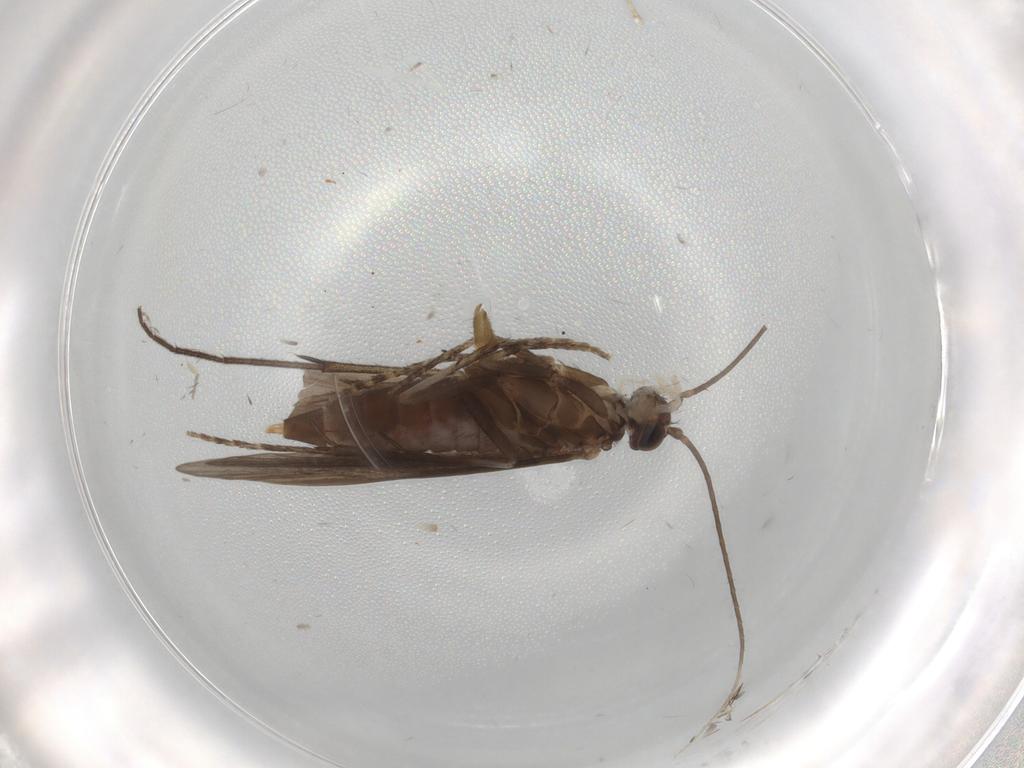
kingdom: Animalia
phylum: Arthropoda
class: Insecta
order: Trichoptera
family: Xiphocentronidae
